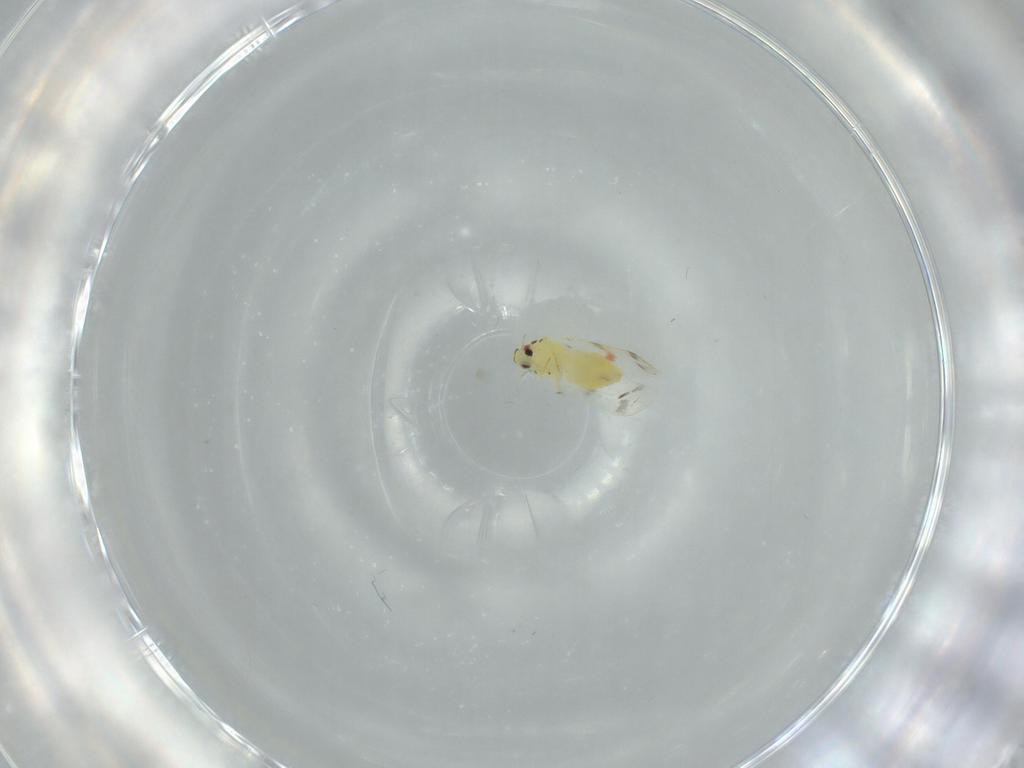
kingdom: Animalia
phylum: Arthropoda
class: Insecta
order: Hemiptera
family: Aleyrodidae
